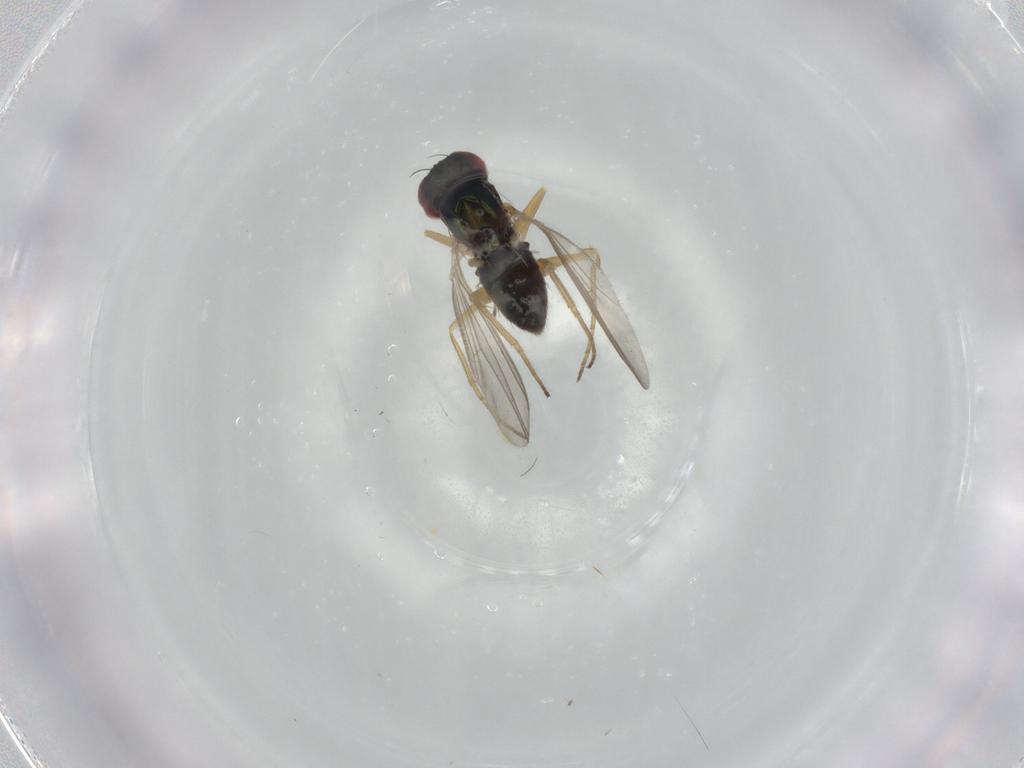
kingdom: Animalia
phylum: Arthropoda
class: Insecta
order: Diptera
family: Dolichopodidae
